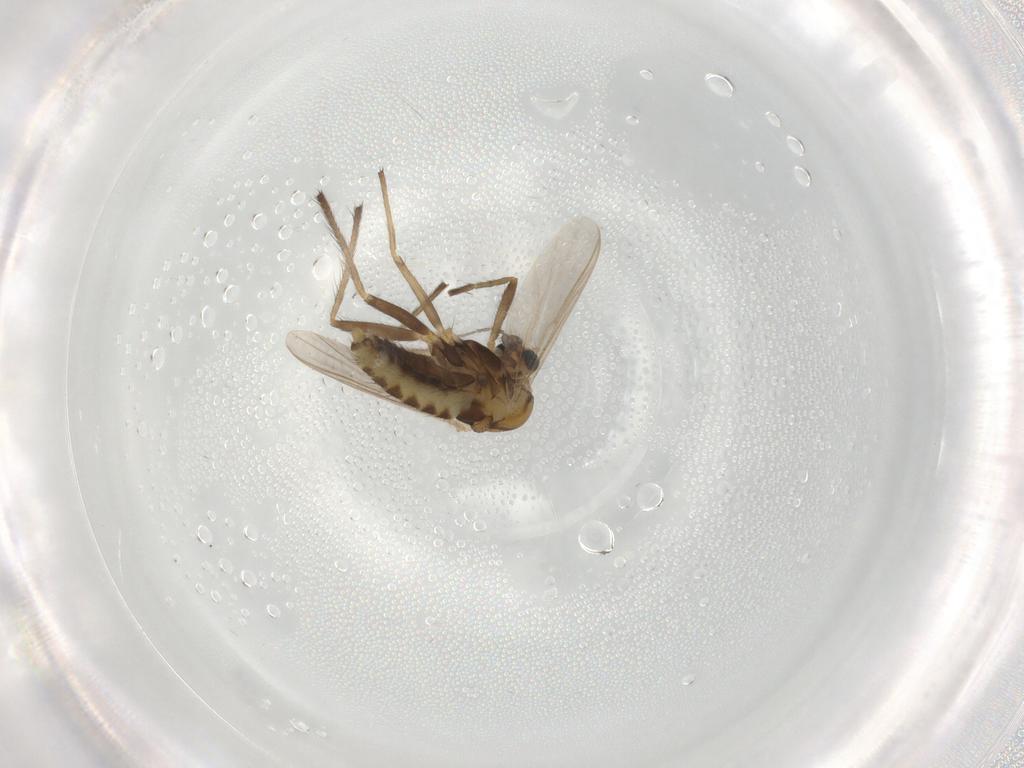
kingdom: Animalia
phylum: Arthropoda
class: Insecta
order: Diptera
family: Chironomidae
